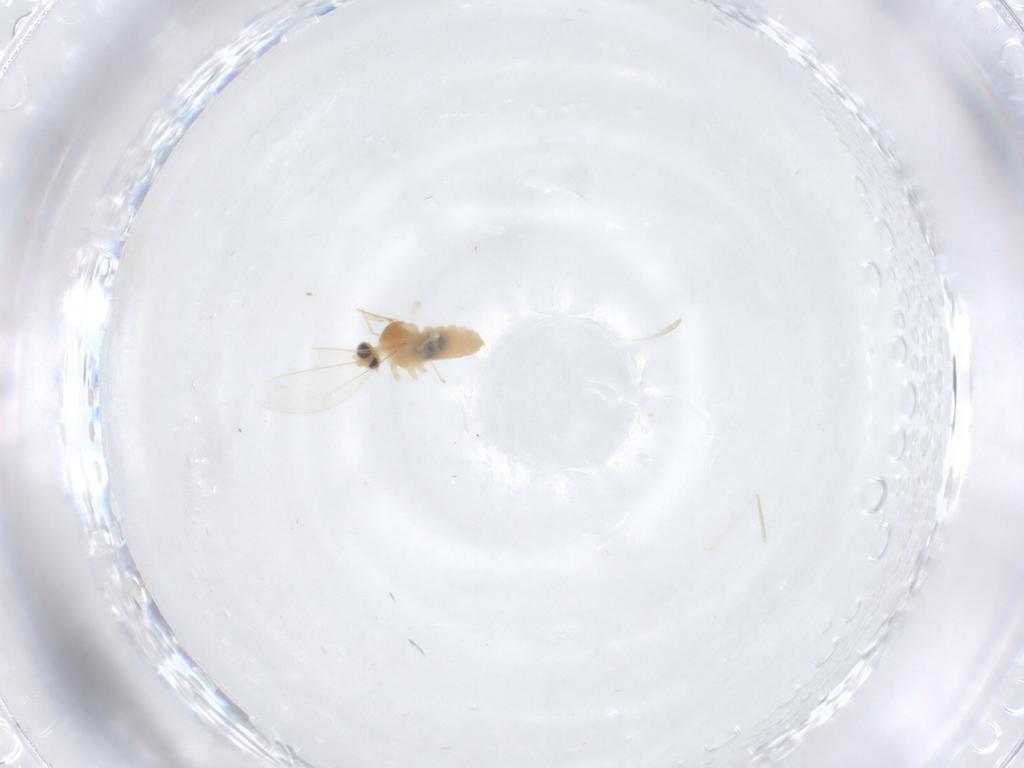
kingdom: Animalia
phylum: Arthropoda
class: Insecta
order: Diptera
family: Cecidomyiidae
